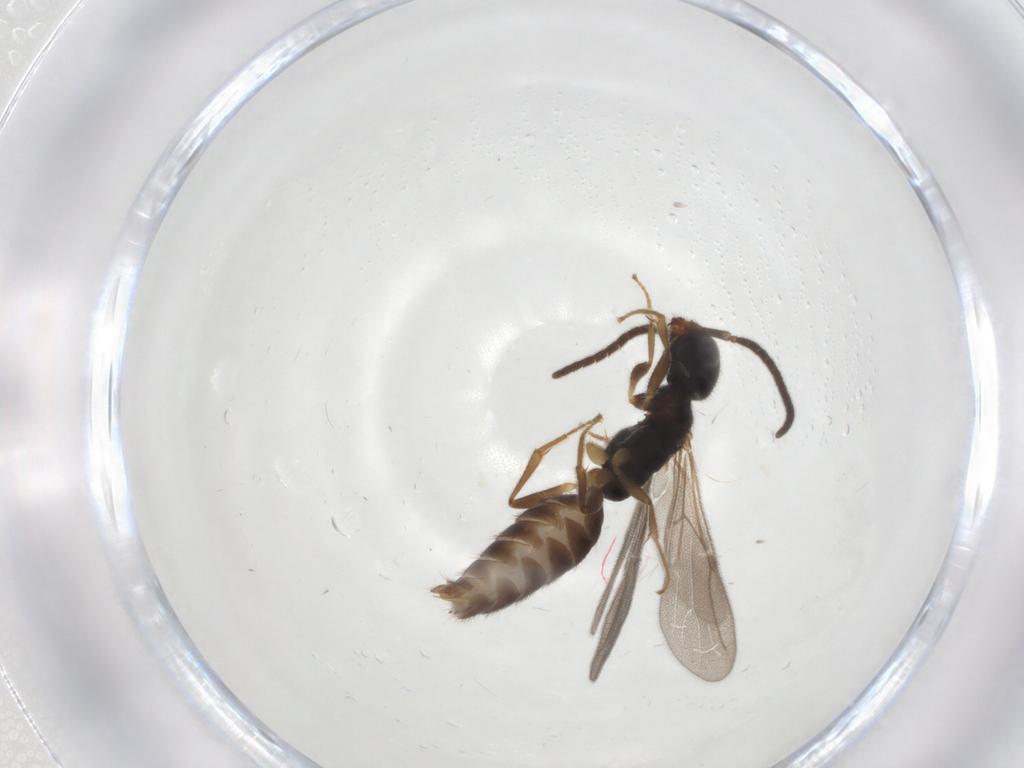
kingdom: Animalia
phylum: Arthropoda
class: Insecta
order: Hymenoptera
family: Bethylidae
